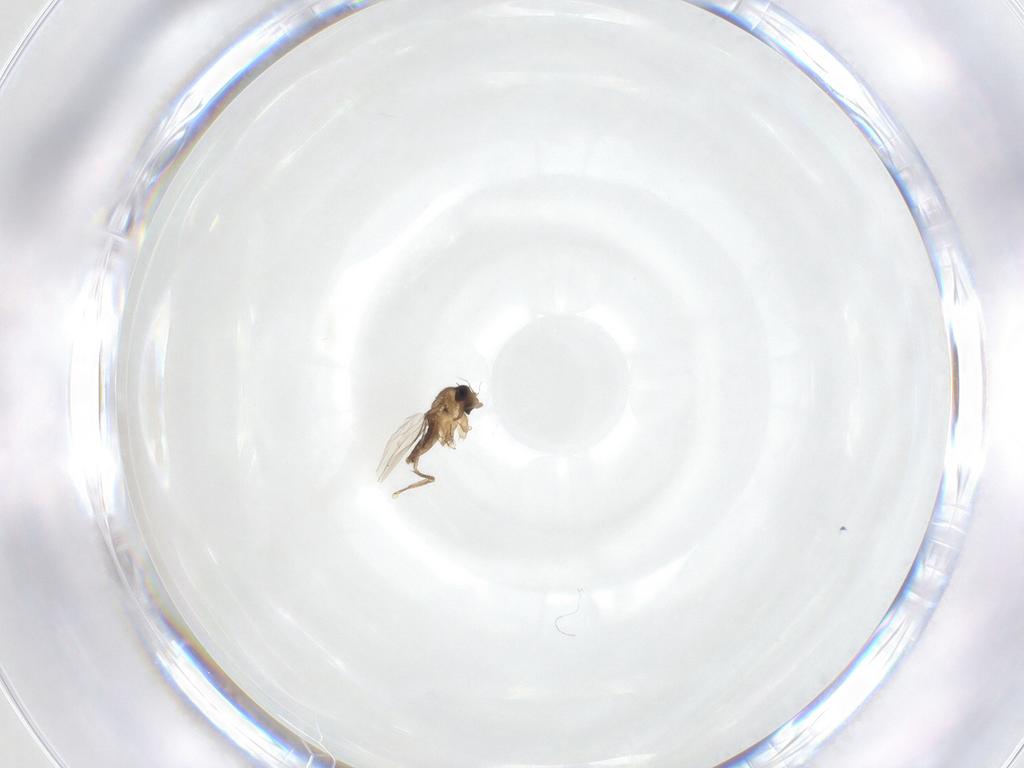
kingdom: Animalia
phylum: Arthropoda
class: Insecta
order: Diptera
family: Phoridae
